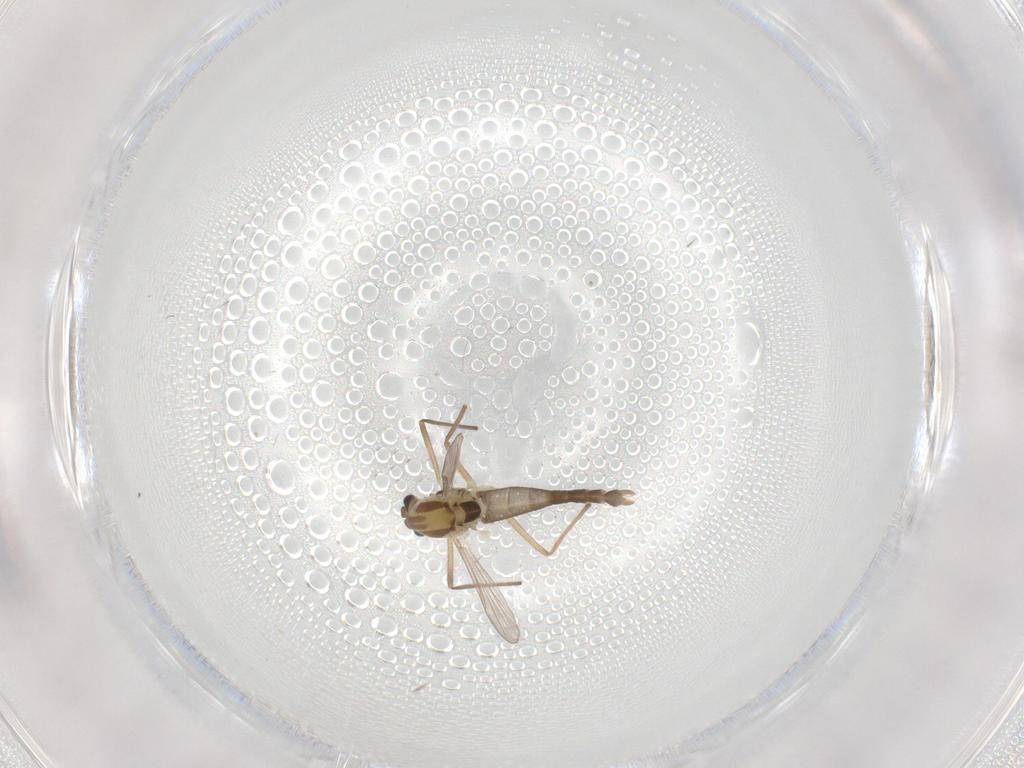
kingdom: Animalia
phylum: Arthropoda
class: Insecta
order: Diptera
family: Chironomidae
